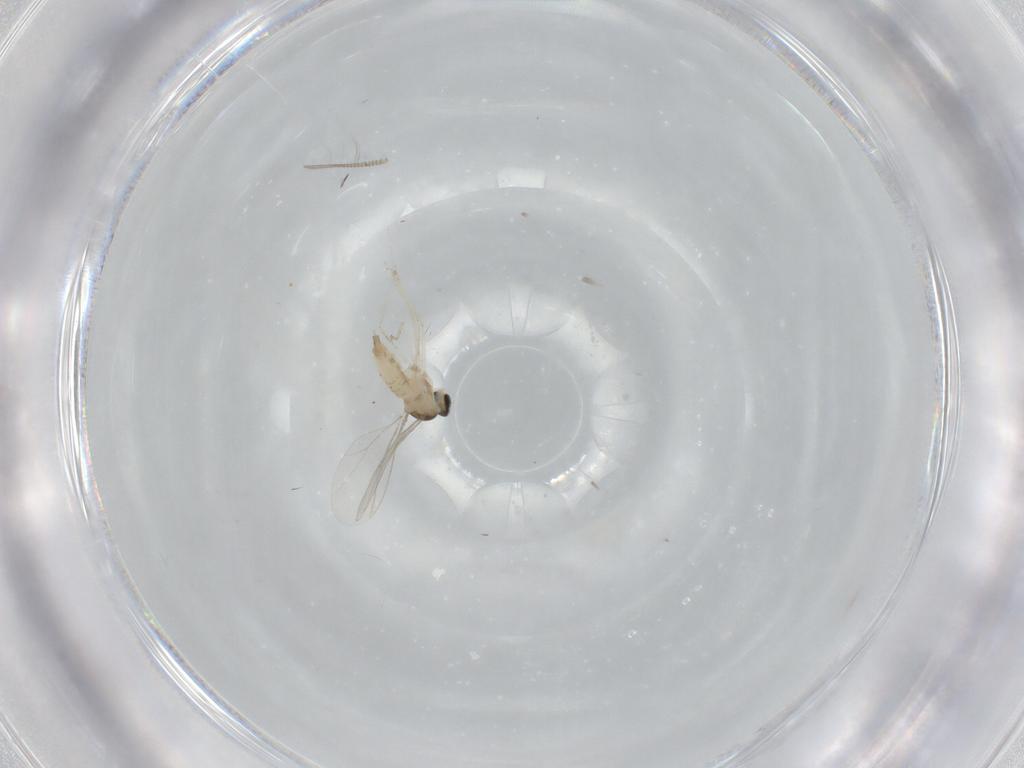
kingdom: Animalia
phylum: Arthropoda
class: Insecta
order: Diptera
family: Cecidomyiidae
